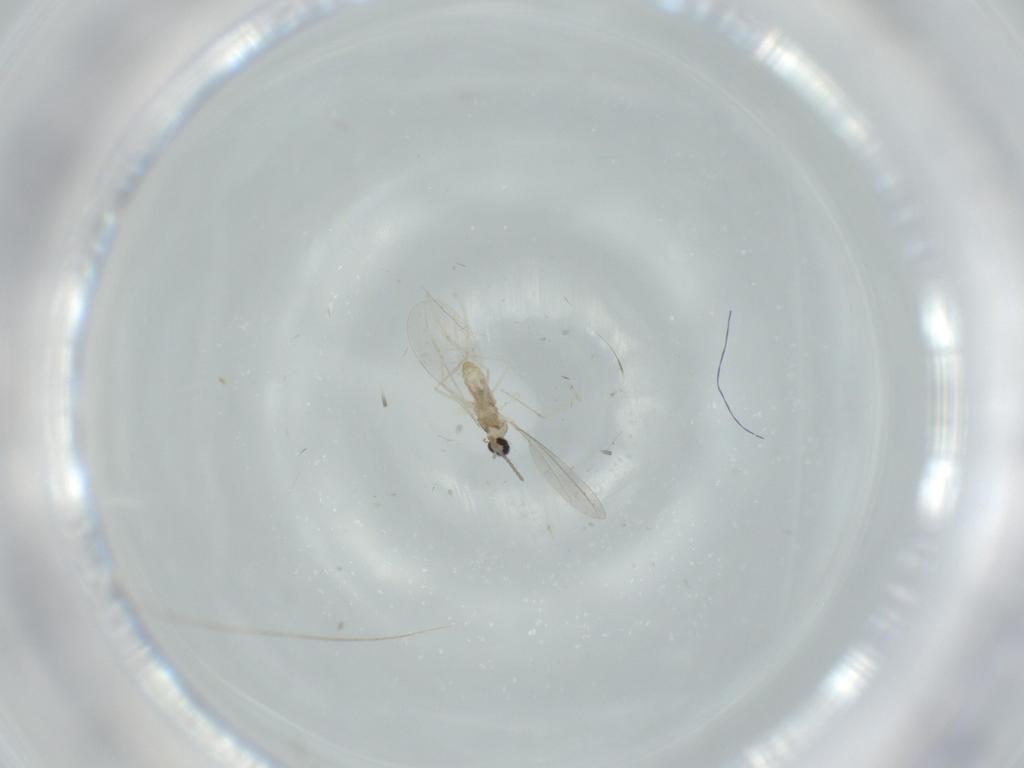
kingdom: Animalia
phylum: Arthropoda
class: Insecta
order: Diptera
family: Cecidomyiidae
